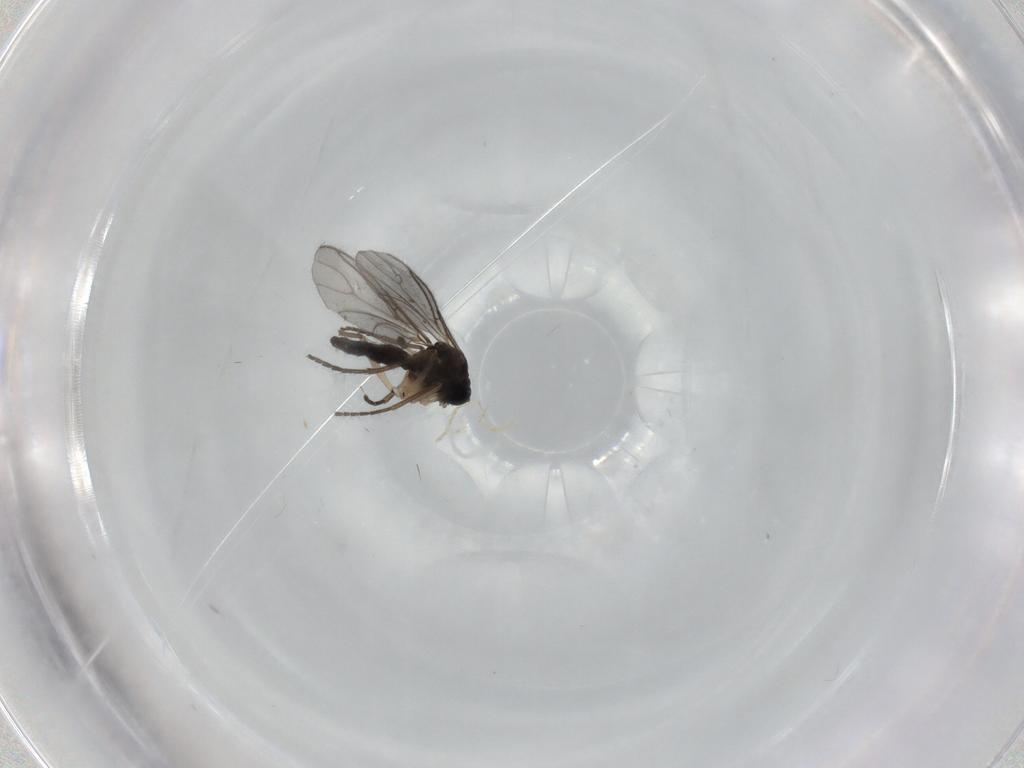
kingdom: Animalia
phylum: Arthropoda
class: Insecta
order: Diptera
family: Sciaridae
